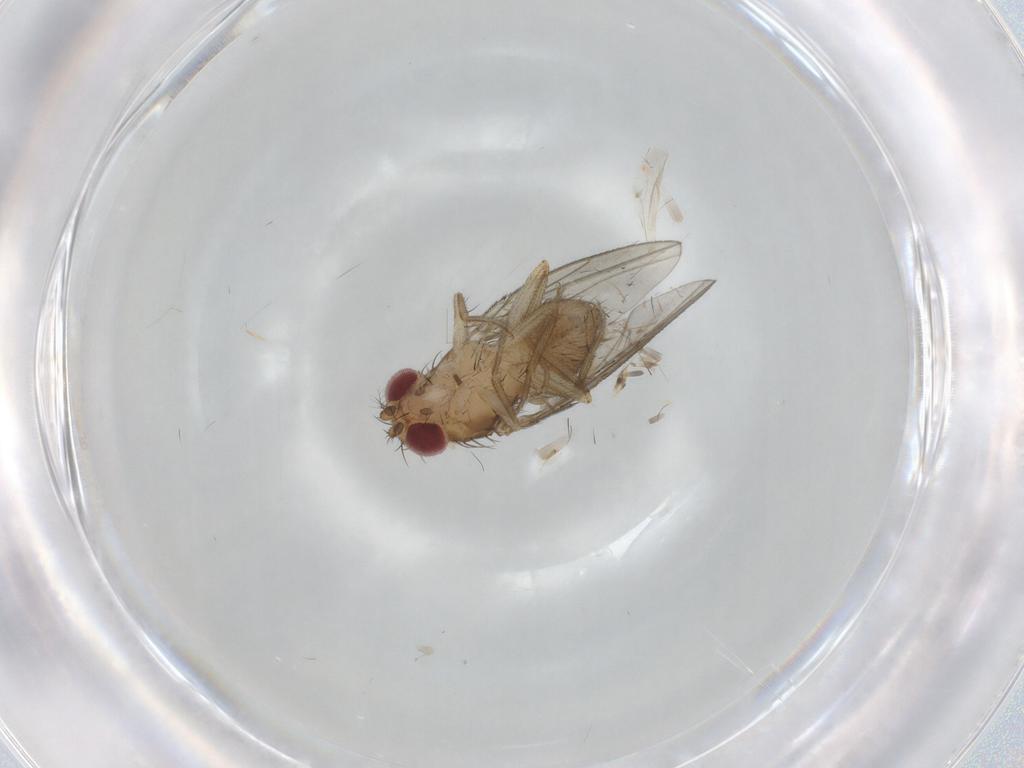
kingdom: Animalia
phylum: Arthropoda
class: Insecta
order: Diptera
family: Drosophilidae
